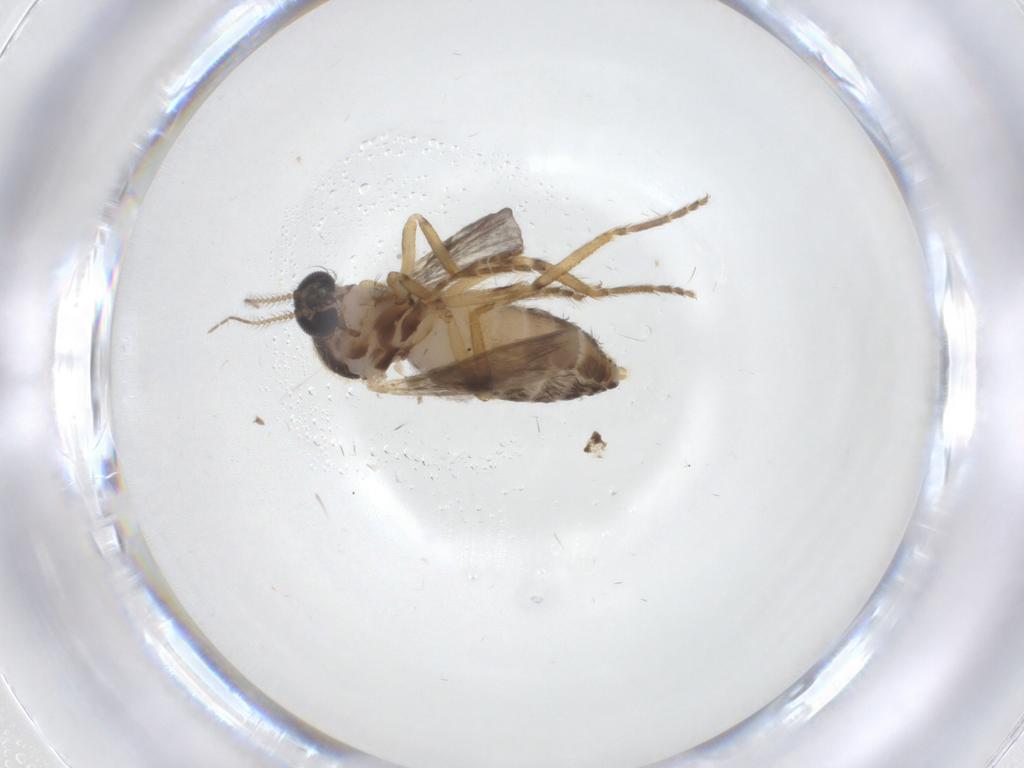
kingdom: Animalia
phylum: Arthropoda
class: Insecta
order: Diptera
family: Ceratopogonidae
